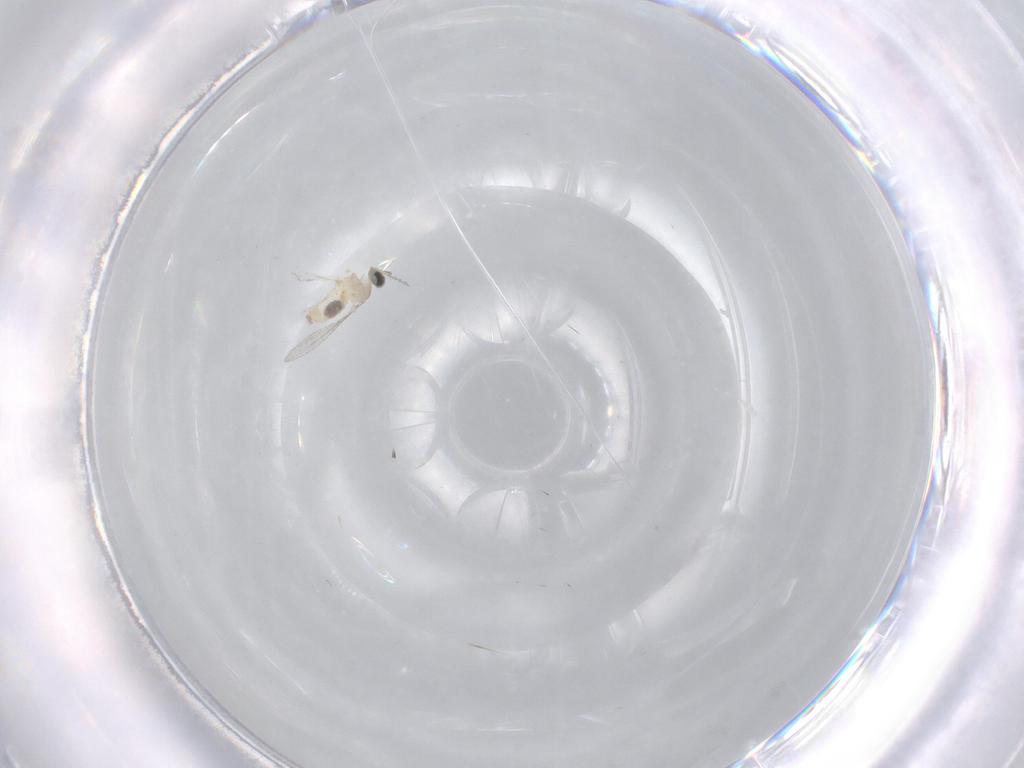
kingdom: Animalia
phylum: Arthropoda
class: Insecta
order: Diptera
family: Cecidomyiidae
